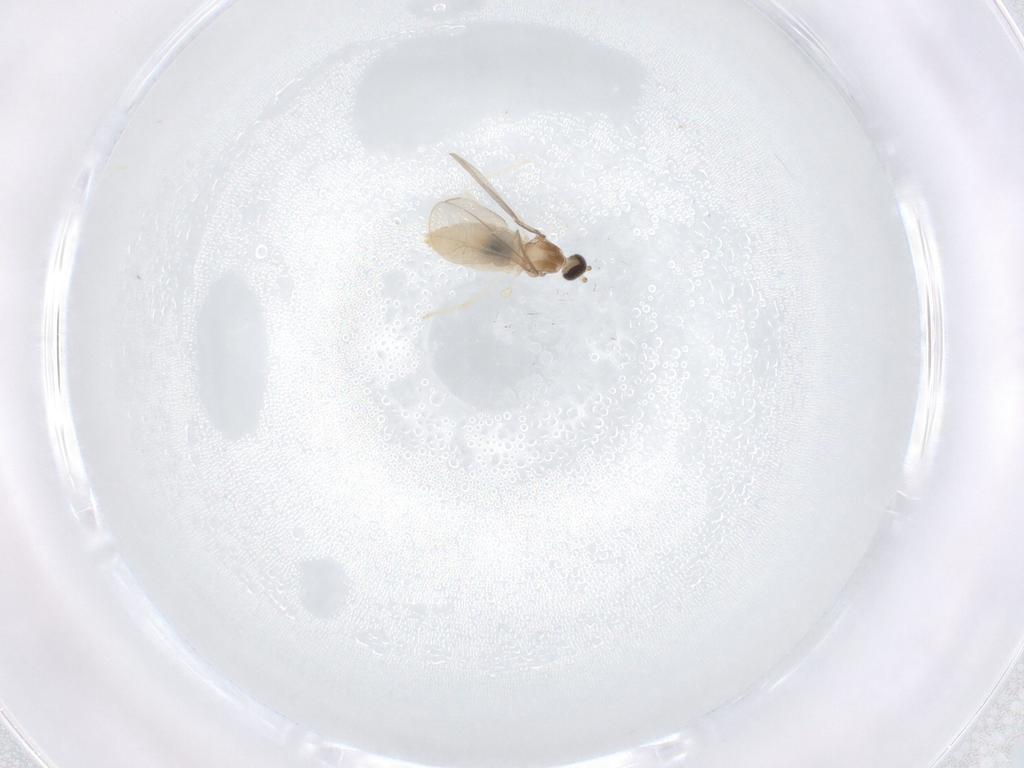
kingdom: Animalia
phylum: Arthropoda
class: Insecta
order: Diptera
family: Cecidomyiidae
